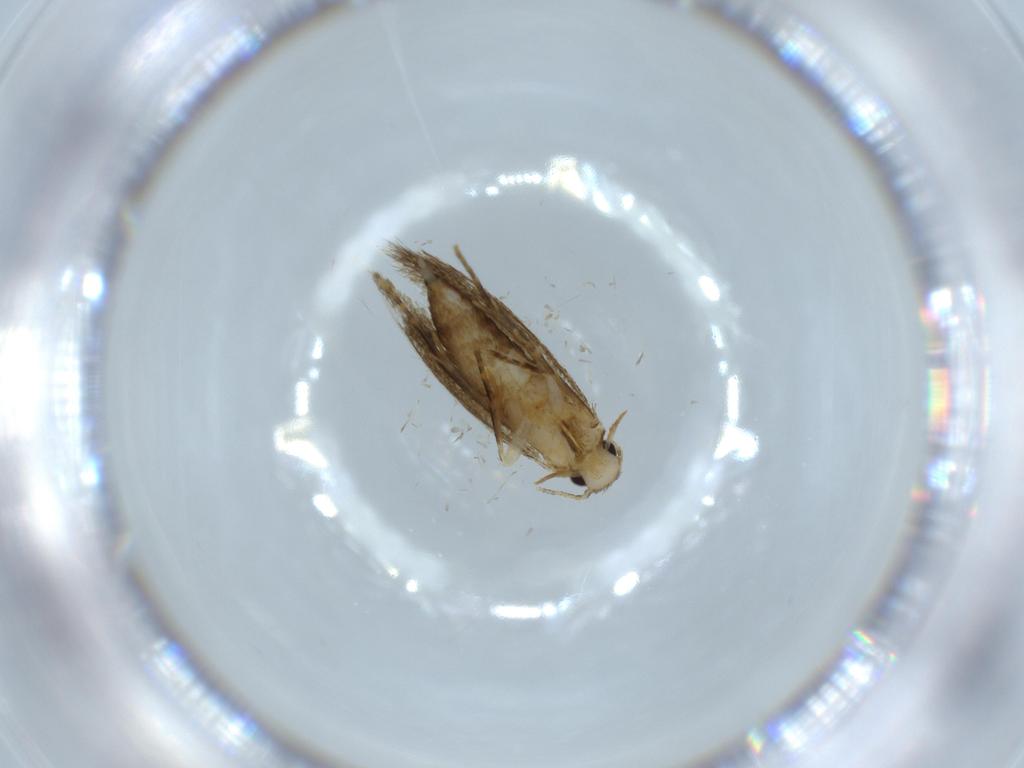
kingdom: Animalia
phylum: Arthropoda
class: Insecta
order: Lepidoptera
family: Tineidae
